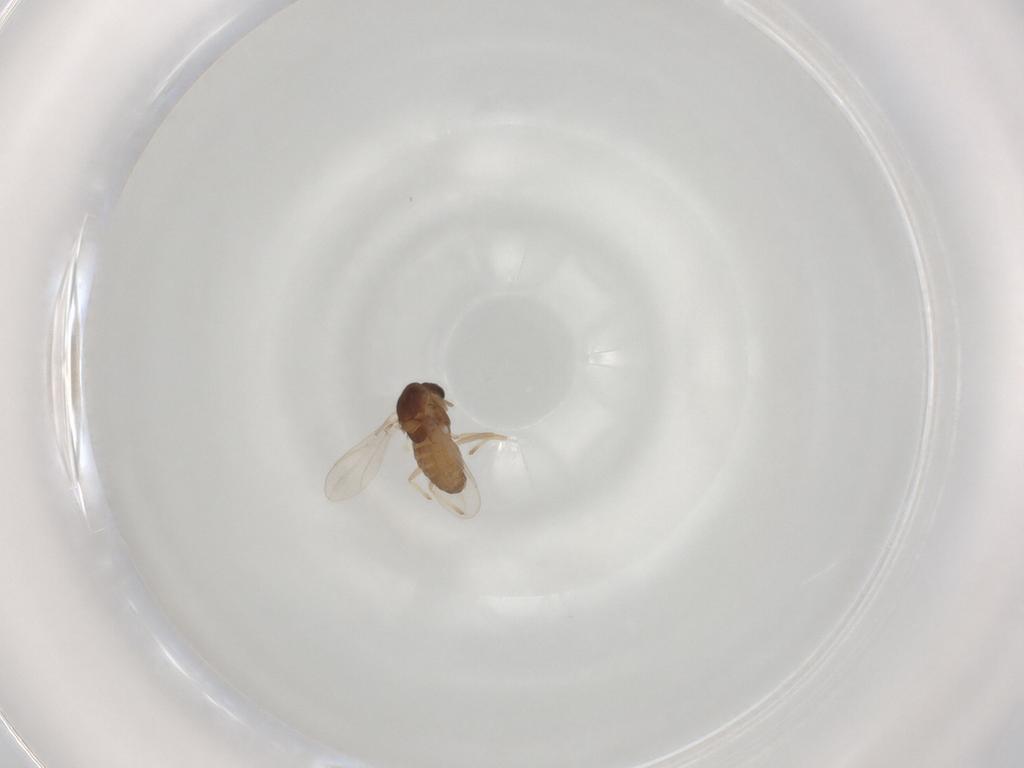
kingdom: Animalia
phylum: Arthropoda
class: Insecta
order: Diptera
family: Chironomidae
